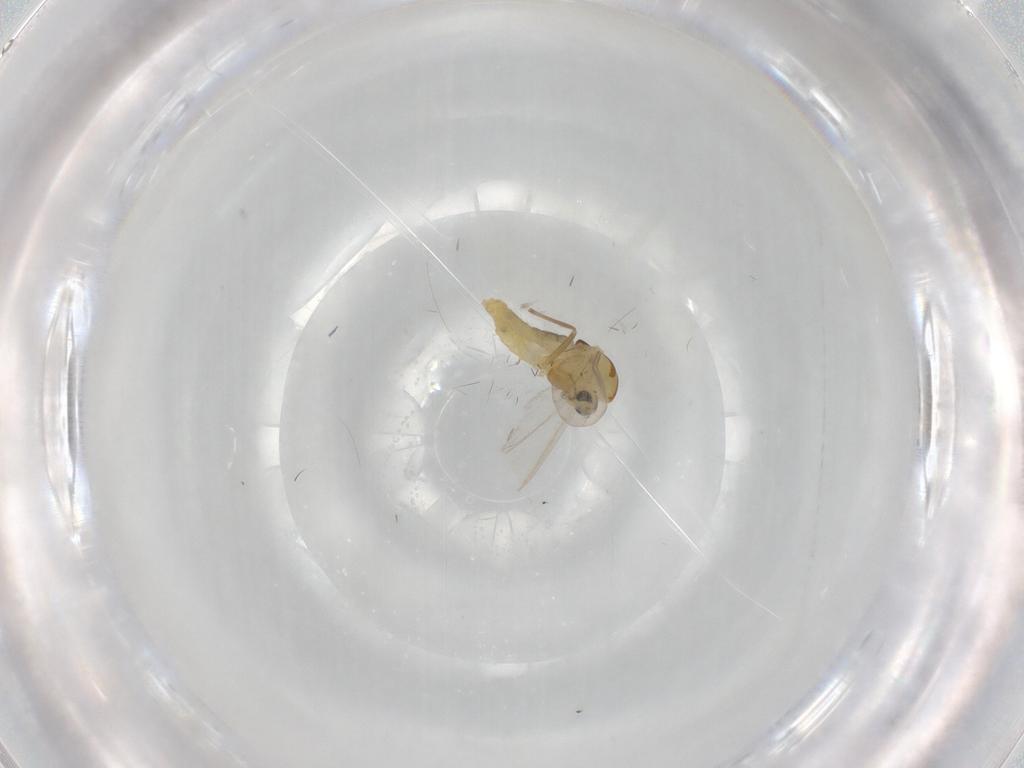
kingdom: Animalia
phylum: Arthropoda
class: Insecta
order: Diptera
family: Chironomidae
